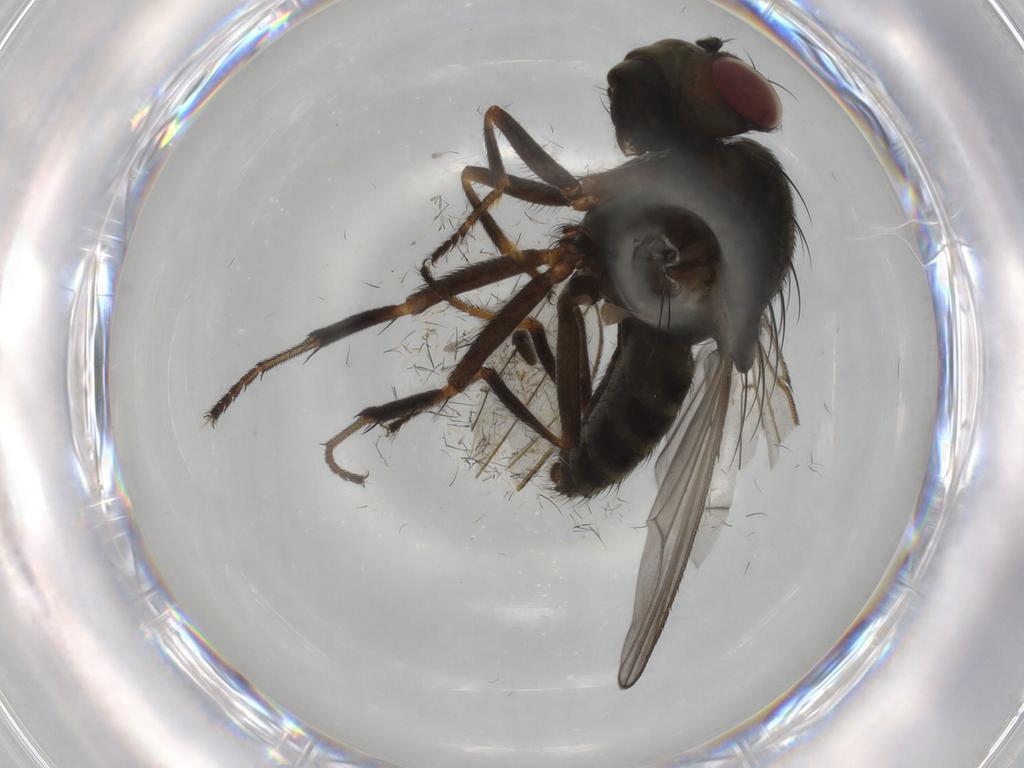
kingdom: Animalia
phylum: Arthropoda
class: Insecta
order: Diptera
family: Ephydridae
